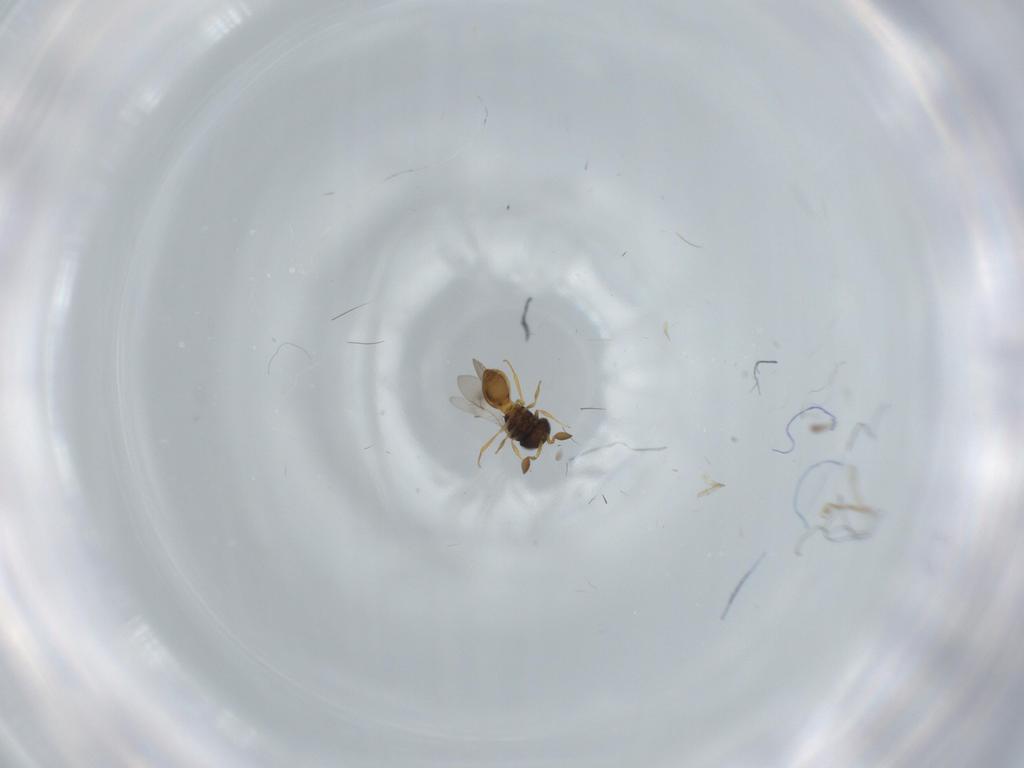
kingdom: Animalia
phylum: Arthropoda
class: Insecta
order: Hymenoptera
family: Scelionidae
